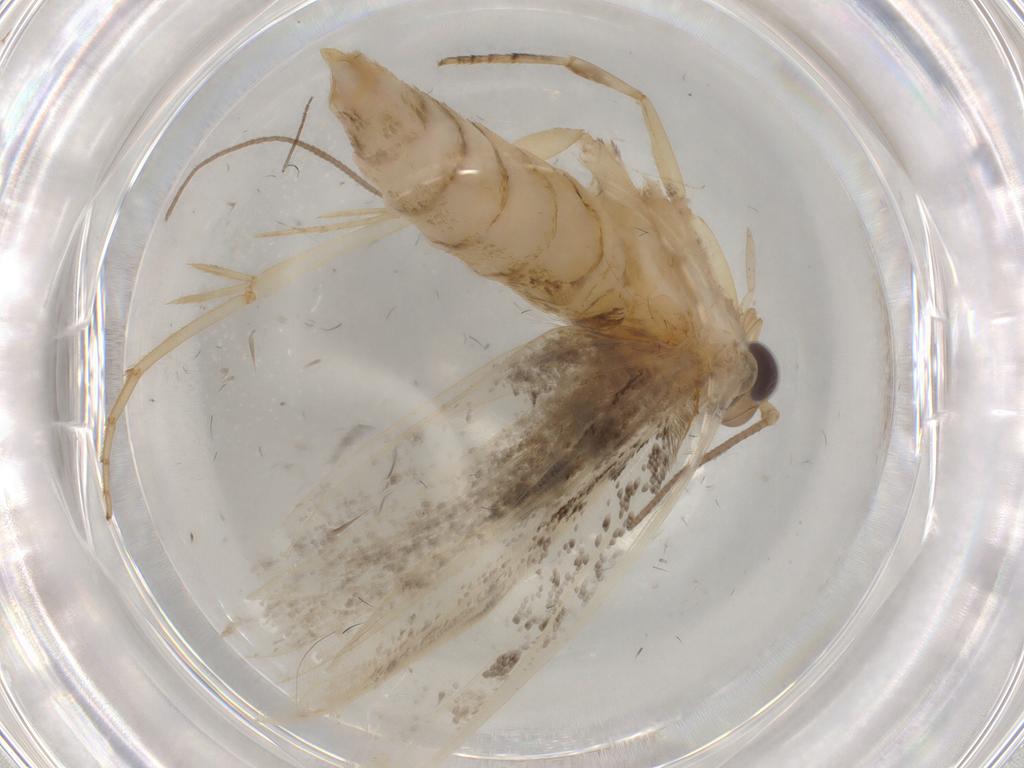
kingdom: Animalia
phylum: Arthropoda
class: Insecta
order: Lepidoptera
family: Yponomeutidae
